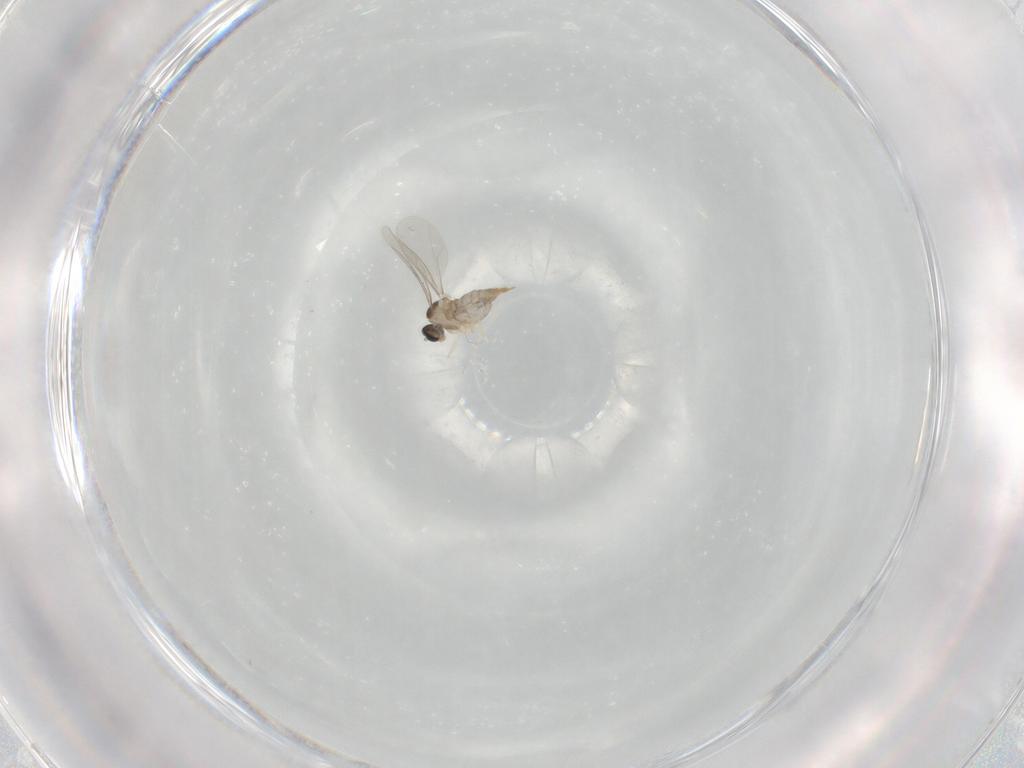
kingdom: Animalia
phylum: Arthropoda
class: Insecta
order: Diptera
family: Cecidomyiidae
